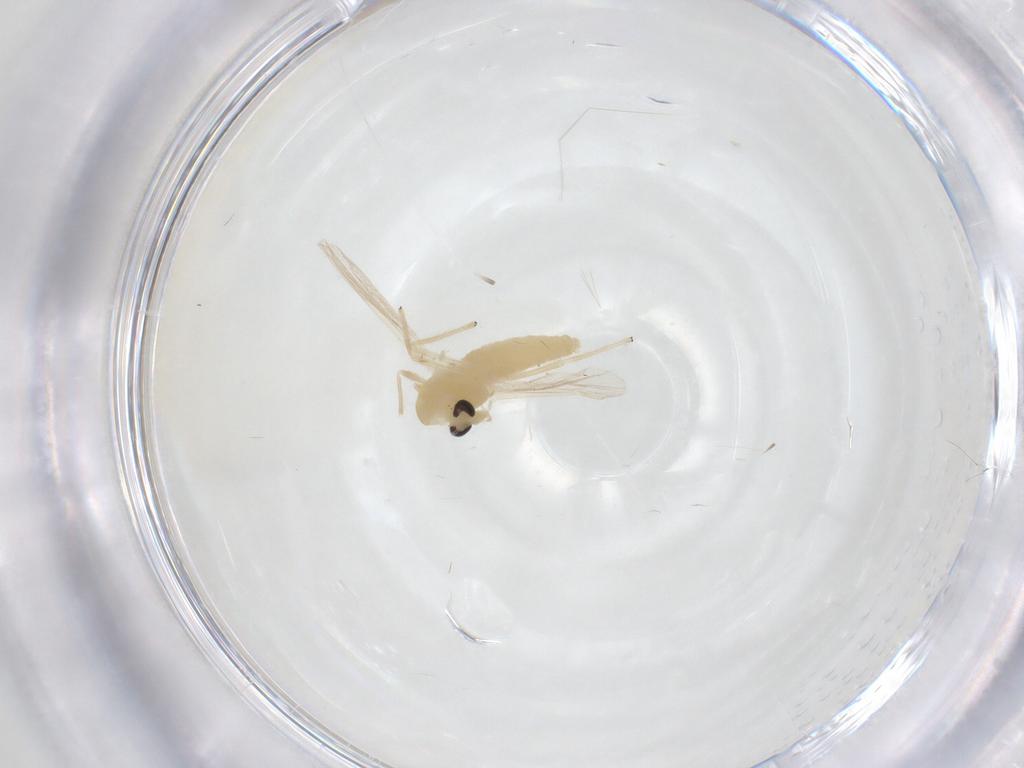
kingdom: Animalia
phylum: Arthropoda
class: Insecta
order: Diptera
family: Chironomidae
